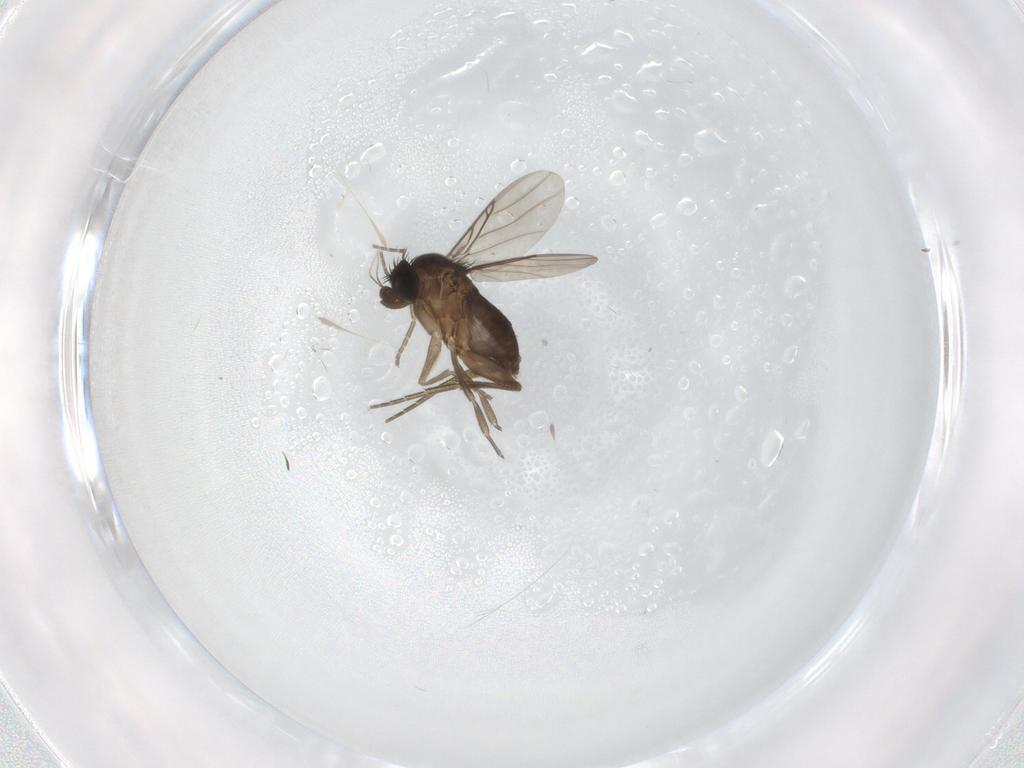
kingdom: Animalia
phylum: Arthropoda
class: Insecta
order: Diptera
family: Phoridae
